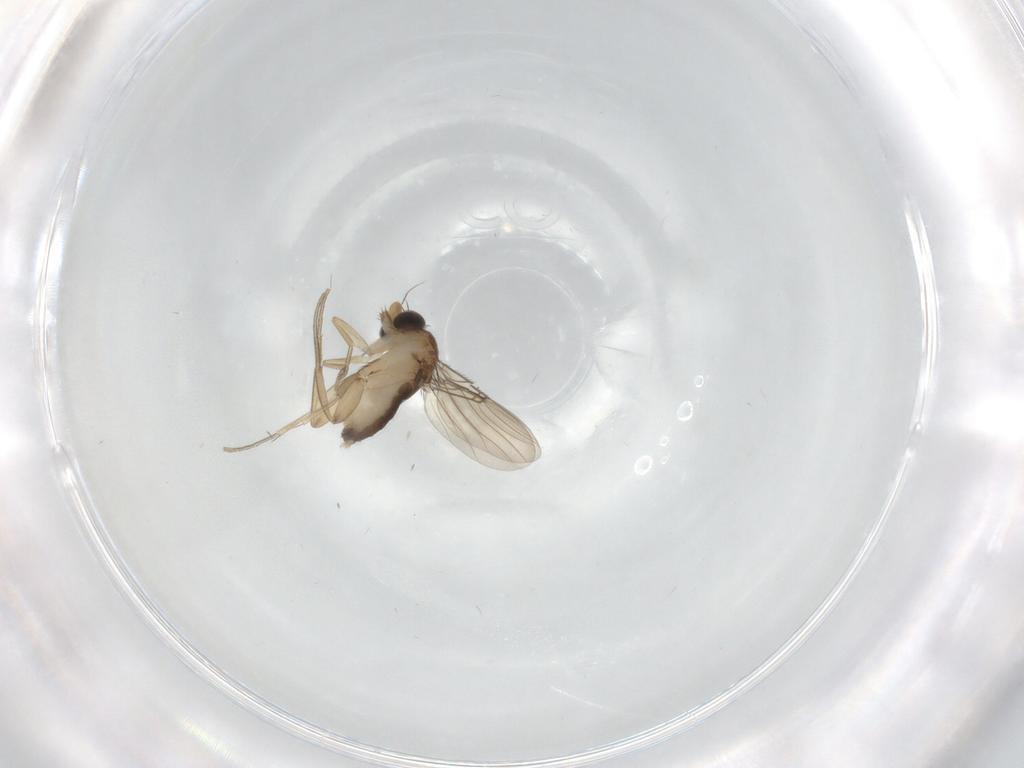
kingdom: Animalia
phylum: Arthropoda
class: Insecta
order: Diptera
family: Phoridae
